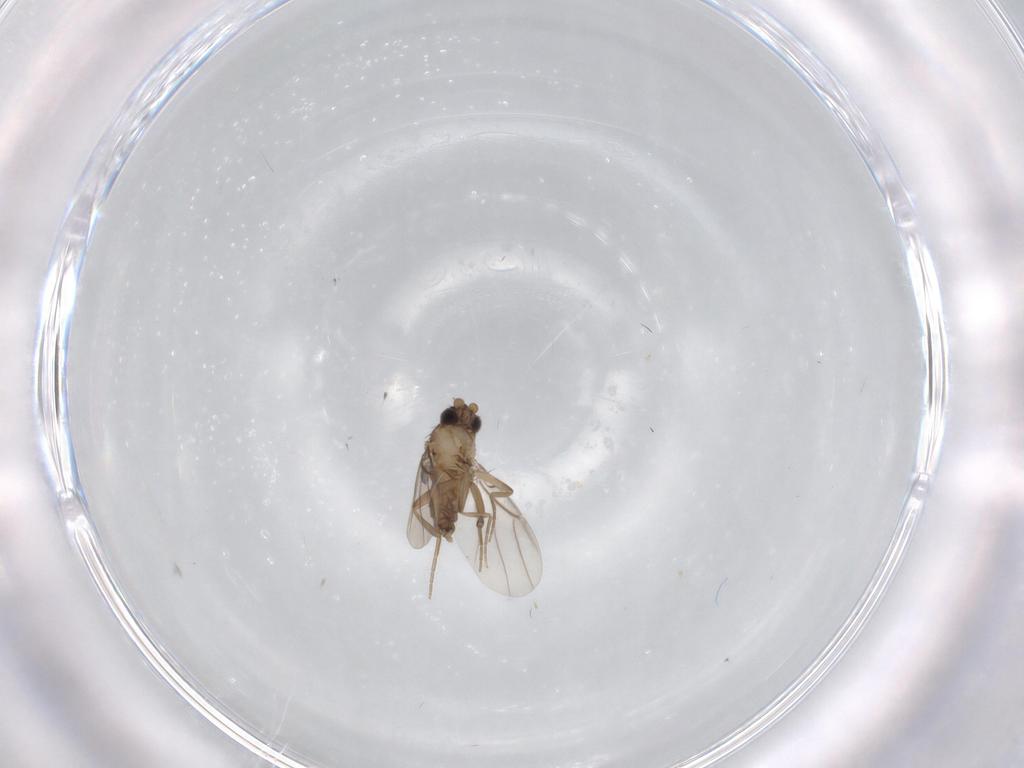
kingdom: Animalia
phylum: Arthropoda
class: Insecta
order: Diptera
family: Phoridae
